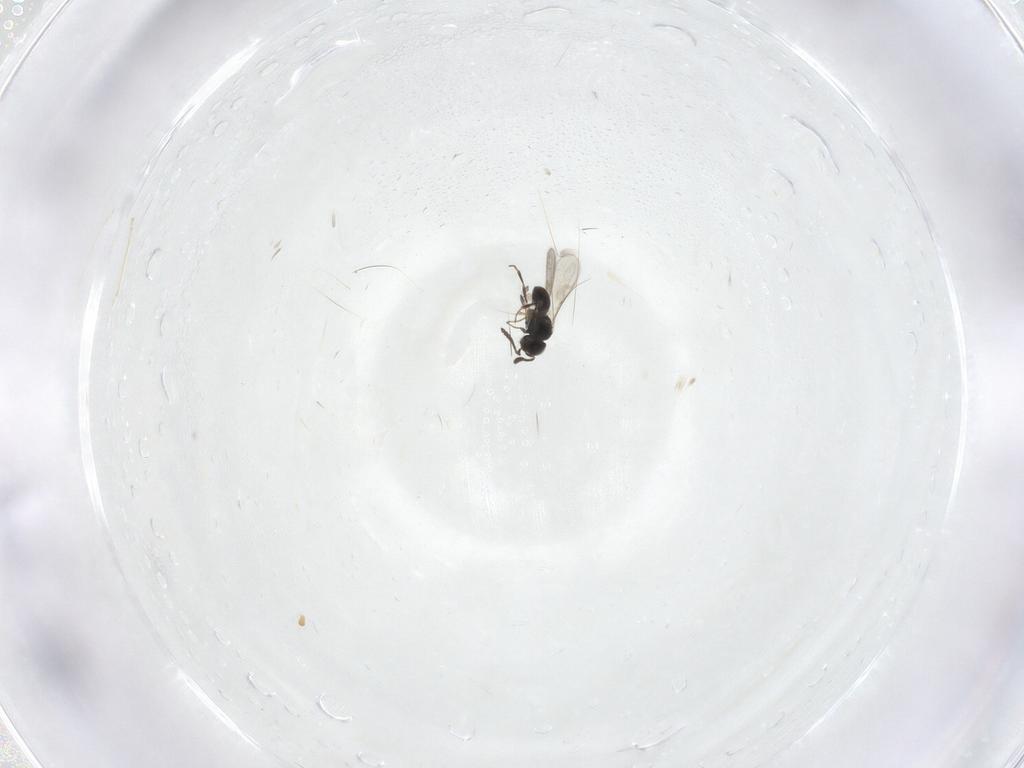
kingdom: Animalia
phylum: Arthropoda
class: Insecta
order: Hymenoptera
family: Scelionidae
